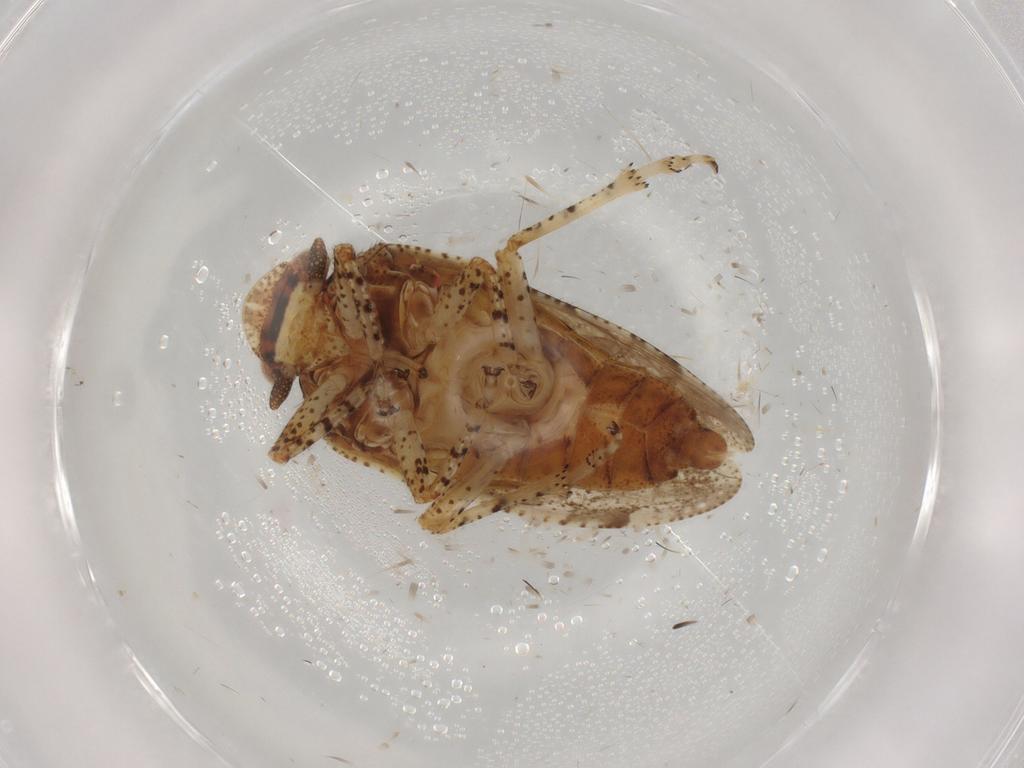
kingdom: Animalia
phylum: Arthropoda
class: Insecta
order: Hemiptera
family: Tettigometridae
